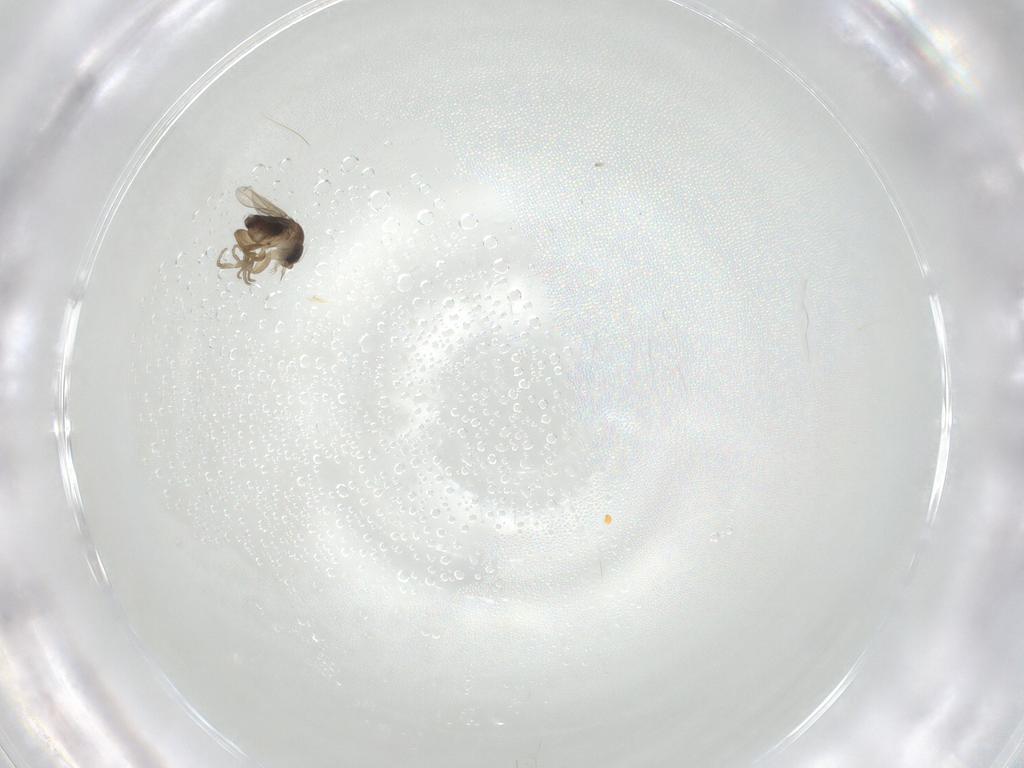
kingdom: Animalia
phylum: Arthropoda
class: Insecta
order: Diptera
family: Phoridae
